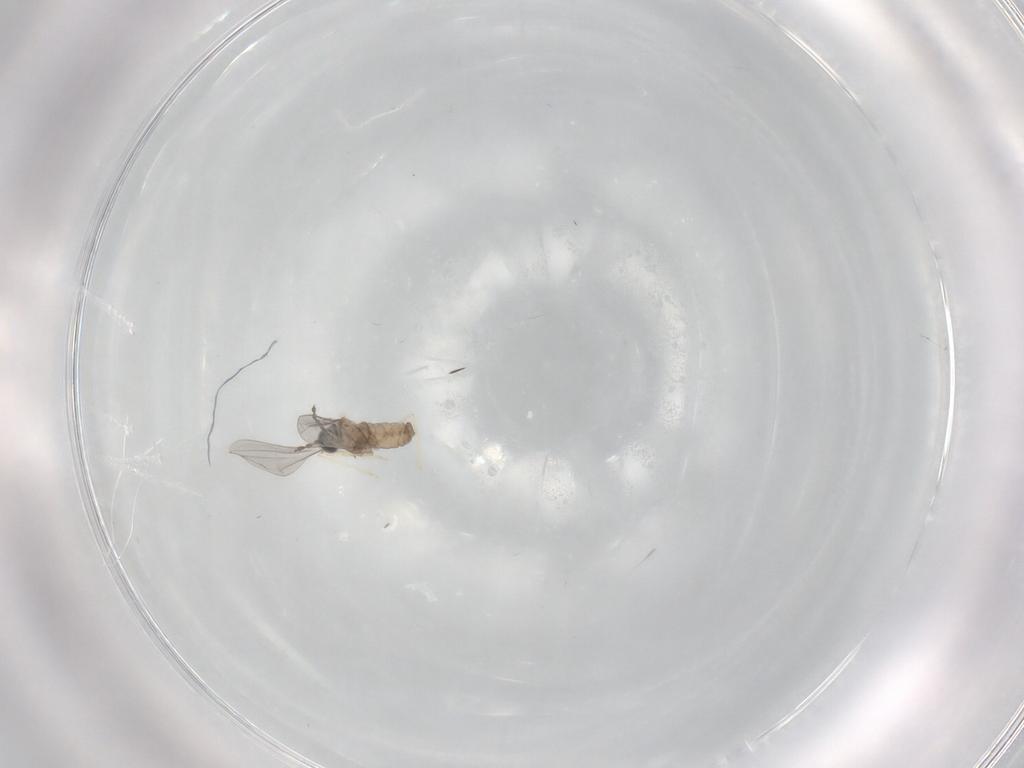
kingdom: Animalia
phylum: Arthropoda
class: Insecta
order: Diptera
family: Cecidomyiidae
